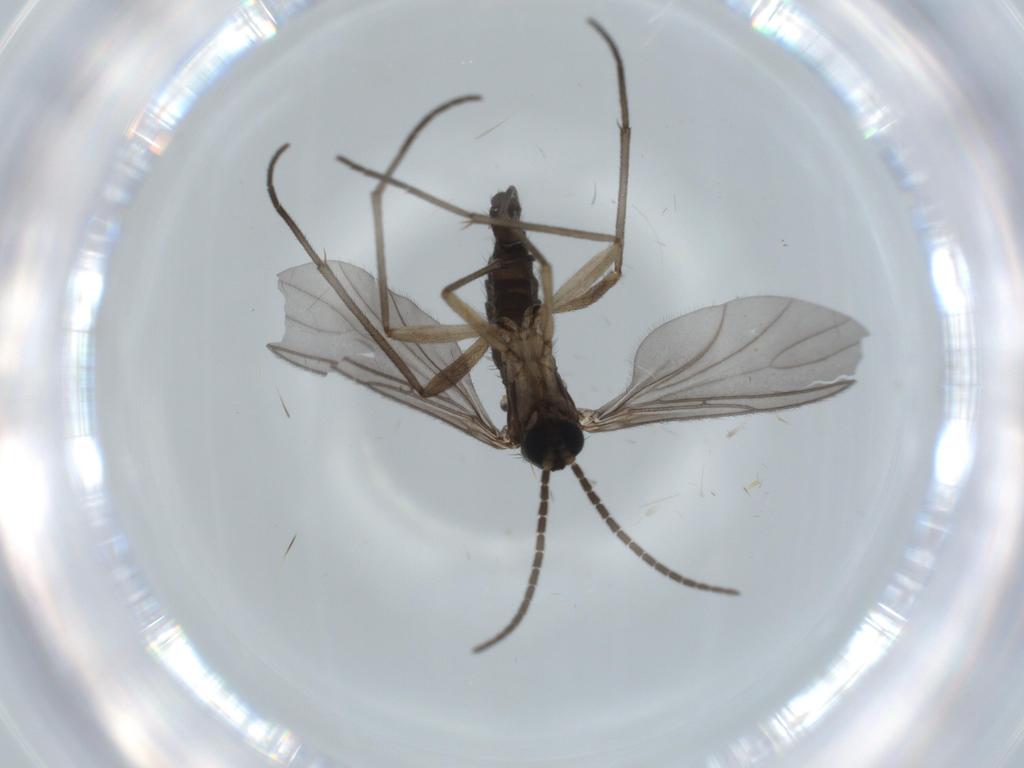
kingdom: Animalia
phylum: Arthropoda
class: Insecta
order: Diptera
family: Sciaridae
